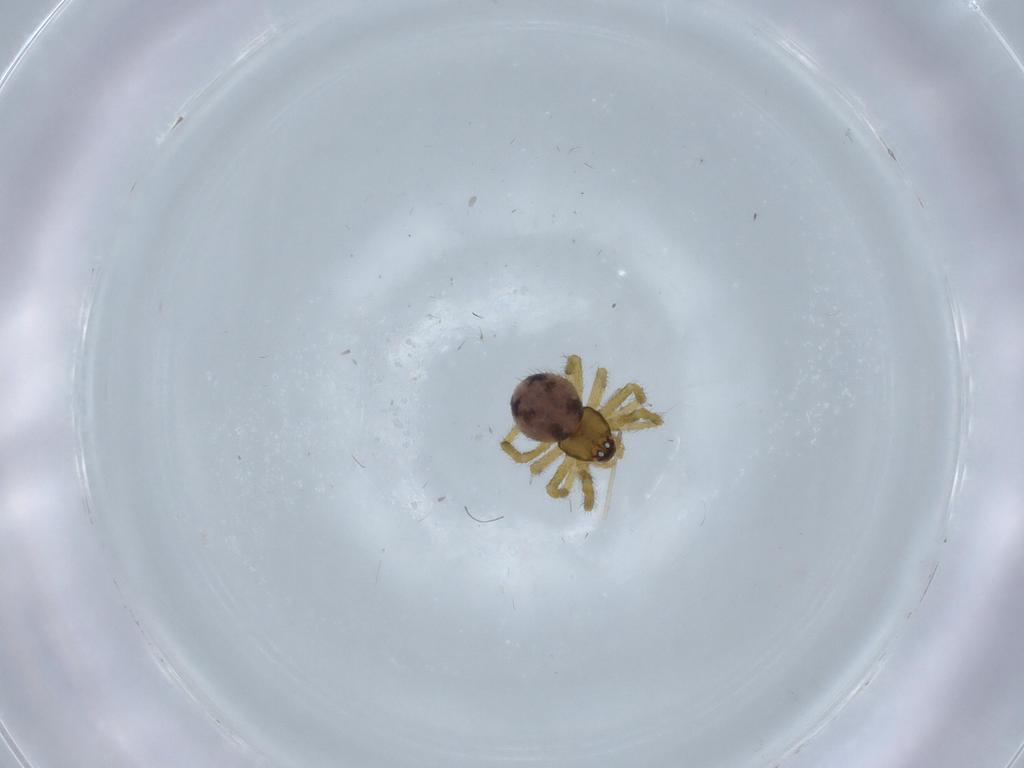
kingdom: Animalia
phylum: Arthropoda
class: Arachnida
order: Araneae
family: Theridiidae
